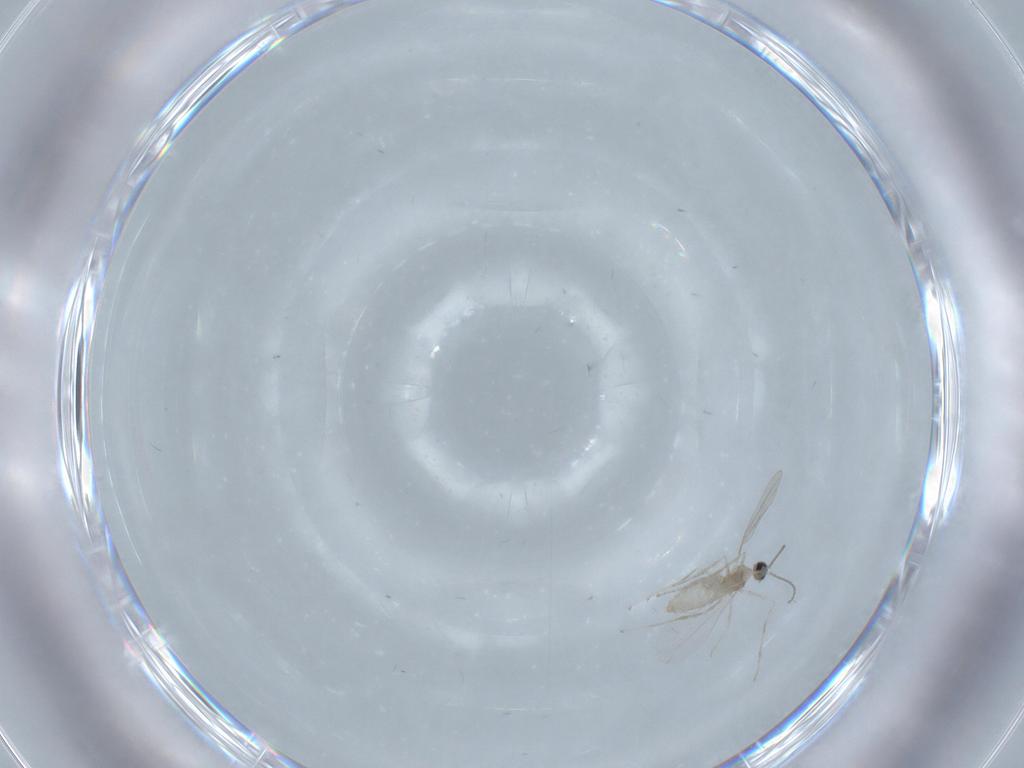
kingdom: Animalia
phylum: Arthropoda
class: Insecta
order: Diptera
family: Cecidomyiidae
